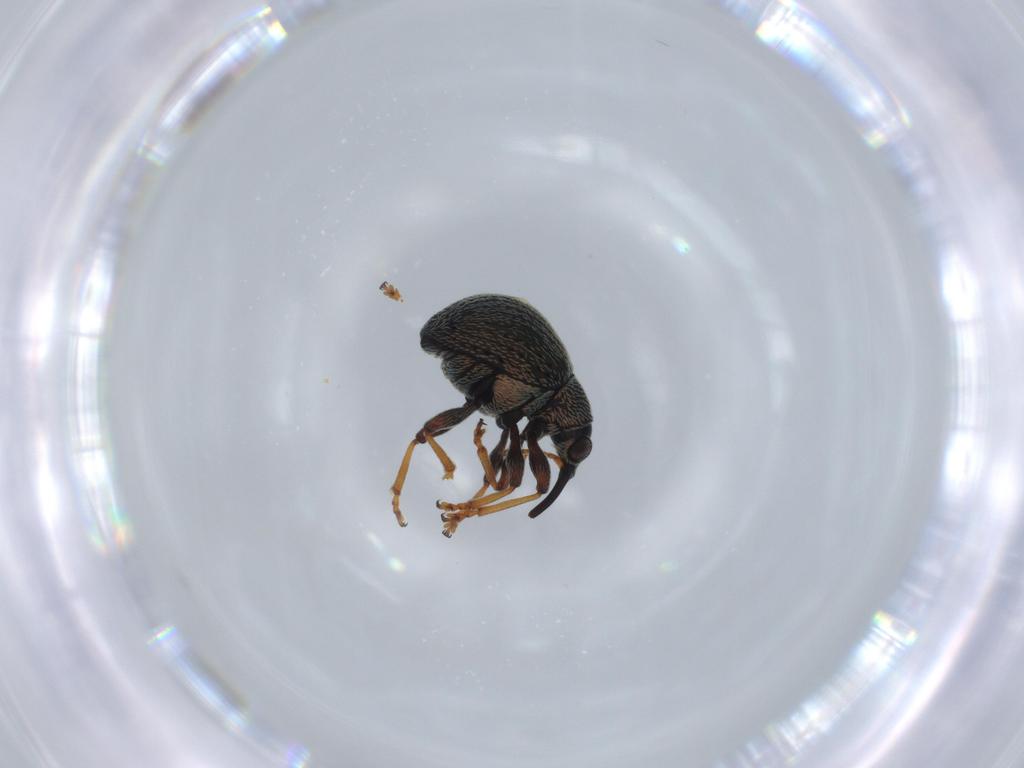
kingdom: Animalia
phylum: Arthropoda
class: Insecta
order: Coleoptera
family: Brentidae
